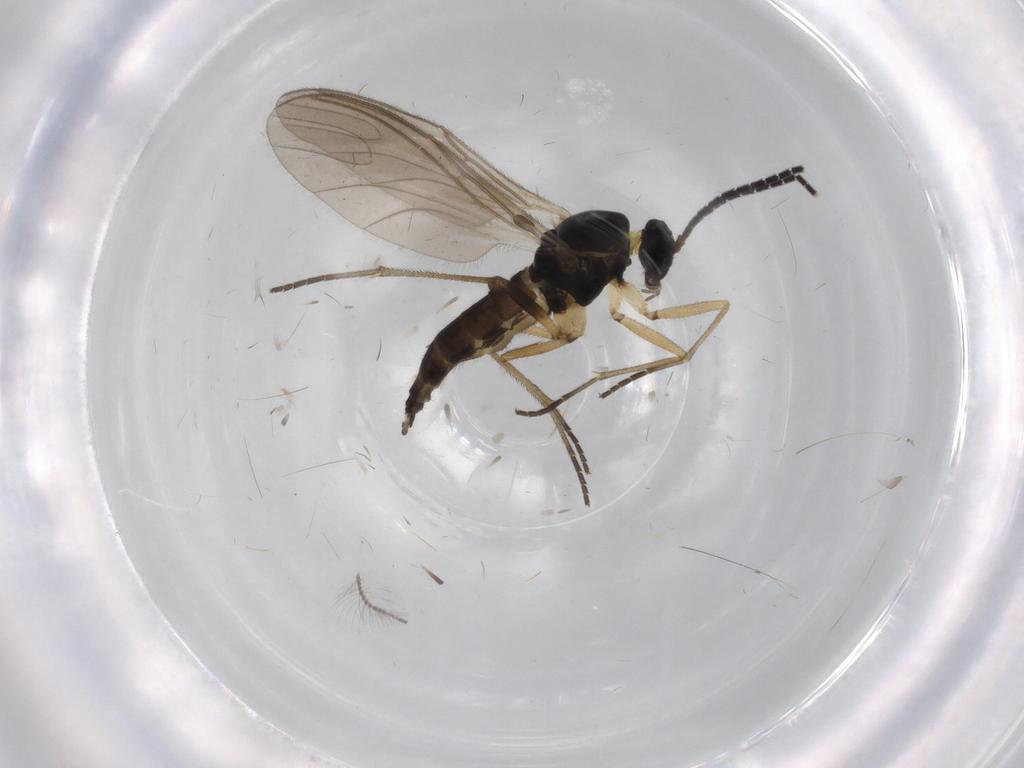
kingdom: Animalia
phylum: Arthropoda
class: Insecta
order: Diptera
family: Sciaridae
